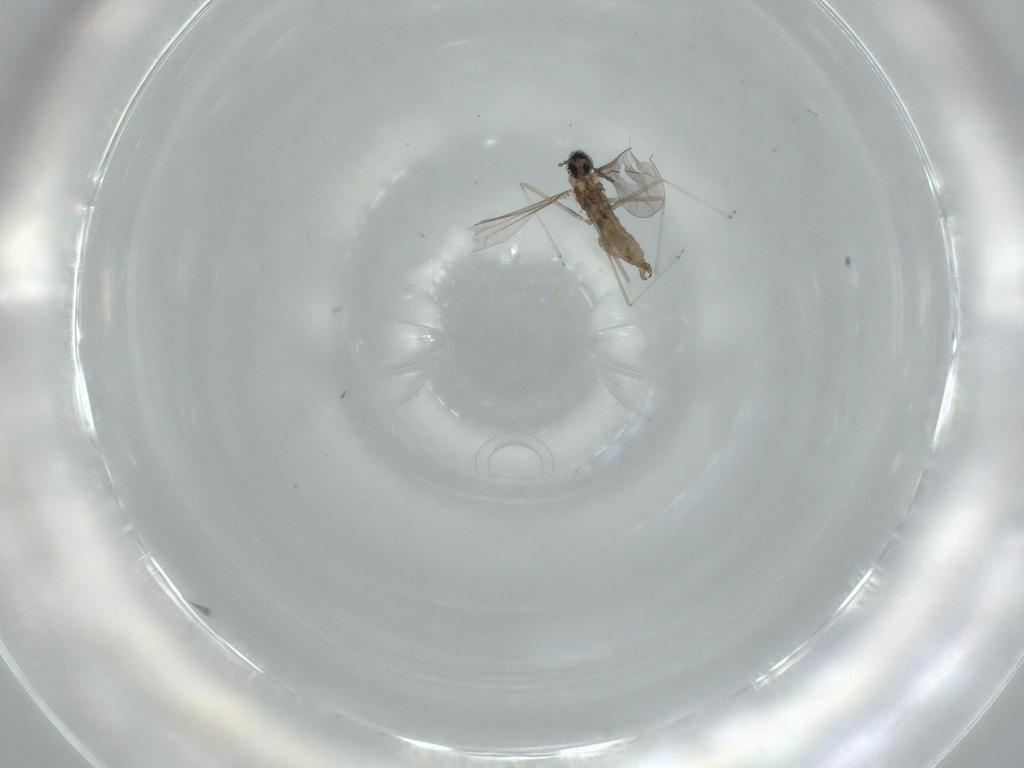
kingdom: Animalia
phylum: Arthropoda
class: Insecta
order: Diptera
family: Cecidomyiidae
